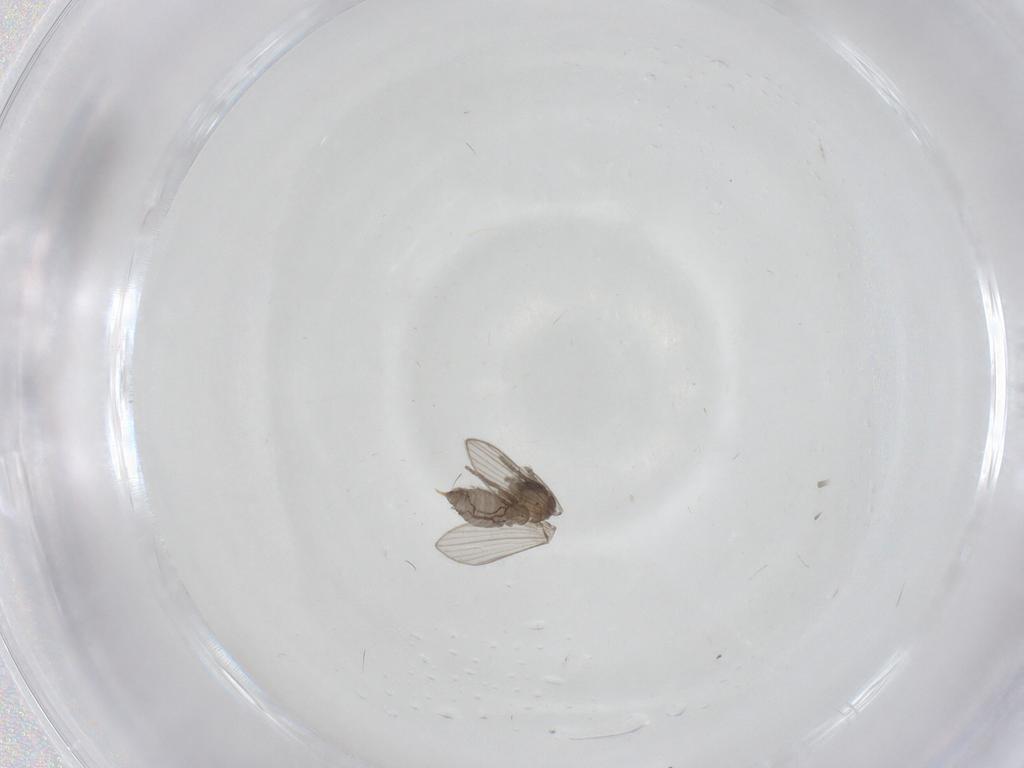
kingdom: Animalia
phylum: Arthropoda
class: Insecta
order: Diptera
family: Psychodidae
